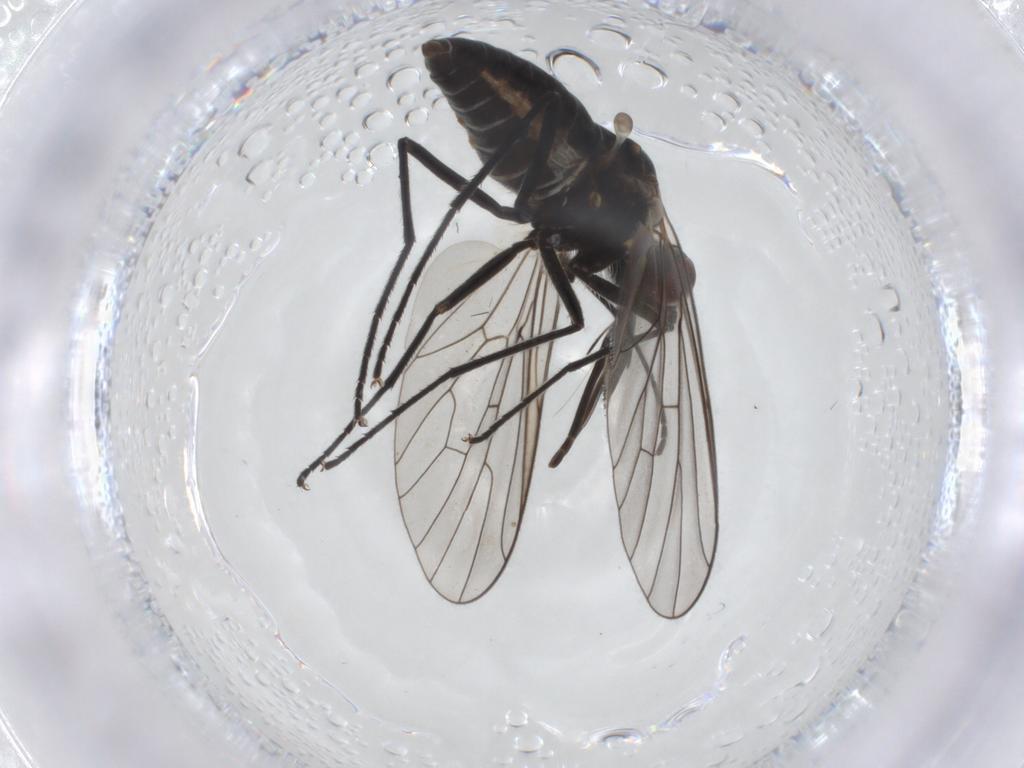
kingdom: Animalia
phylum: Arthropoda
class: Insecta
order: Diptera
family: Bombyliidae
